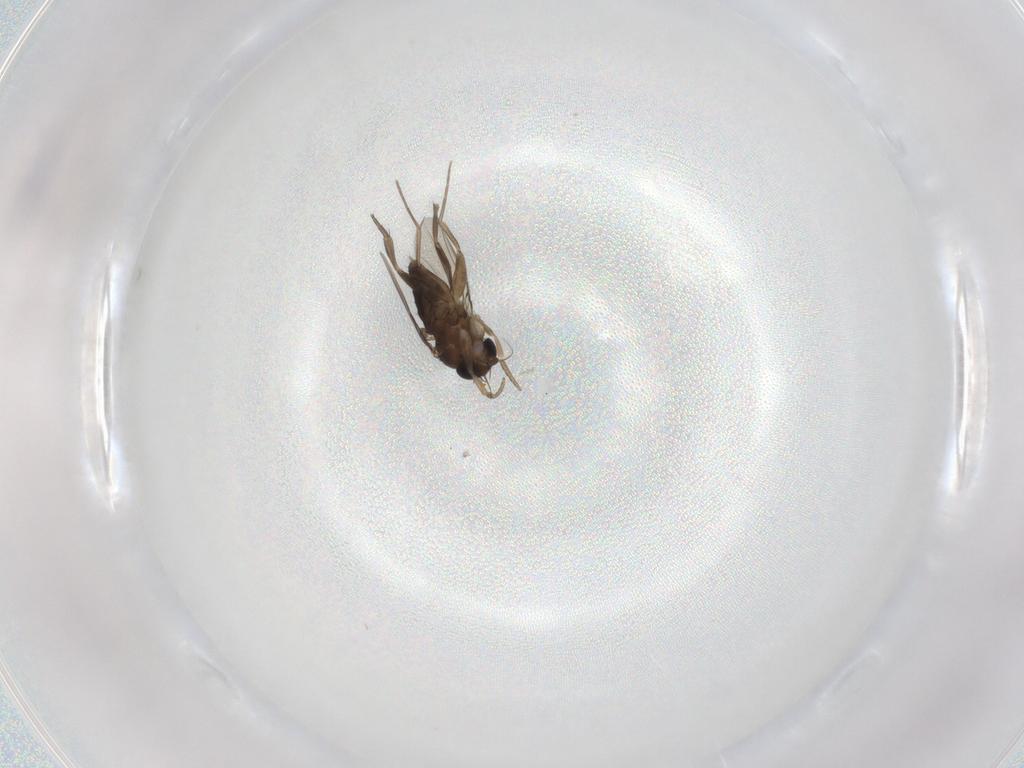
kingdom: Animalia
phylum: Arthropoda
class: Insecta
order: Diptera
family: Phoridae
